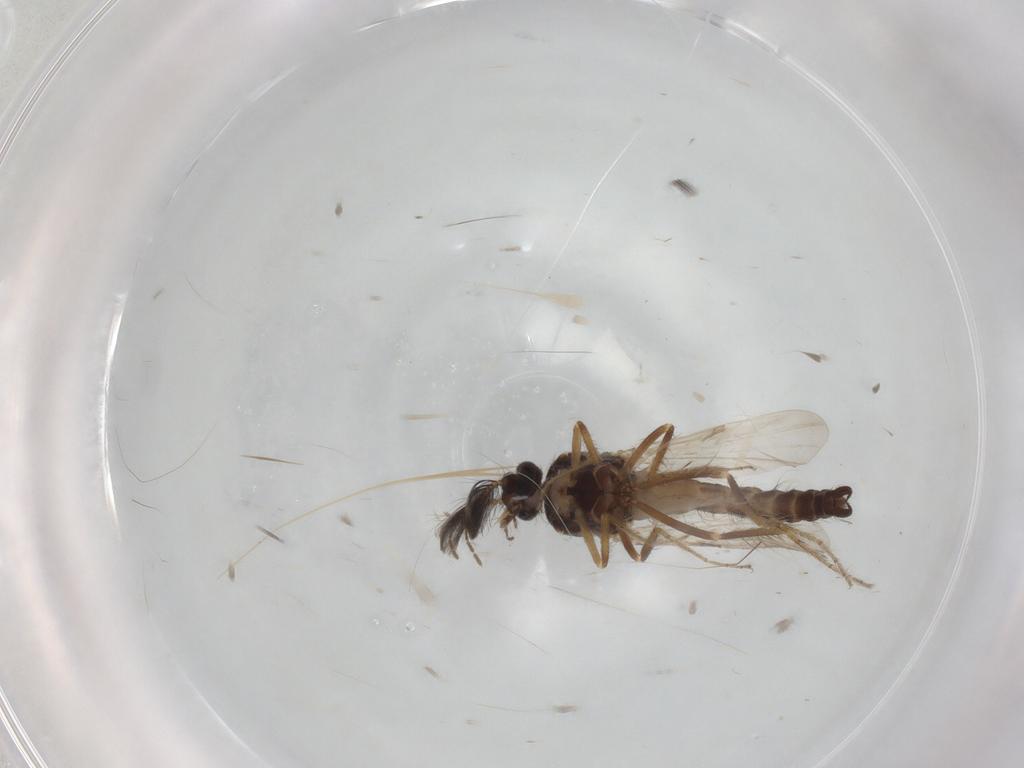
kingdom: Animalia
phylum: Arthropoda
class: Insecta
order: Diptera
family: Ceratopogonidae
